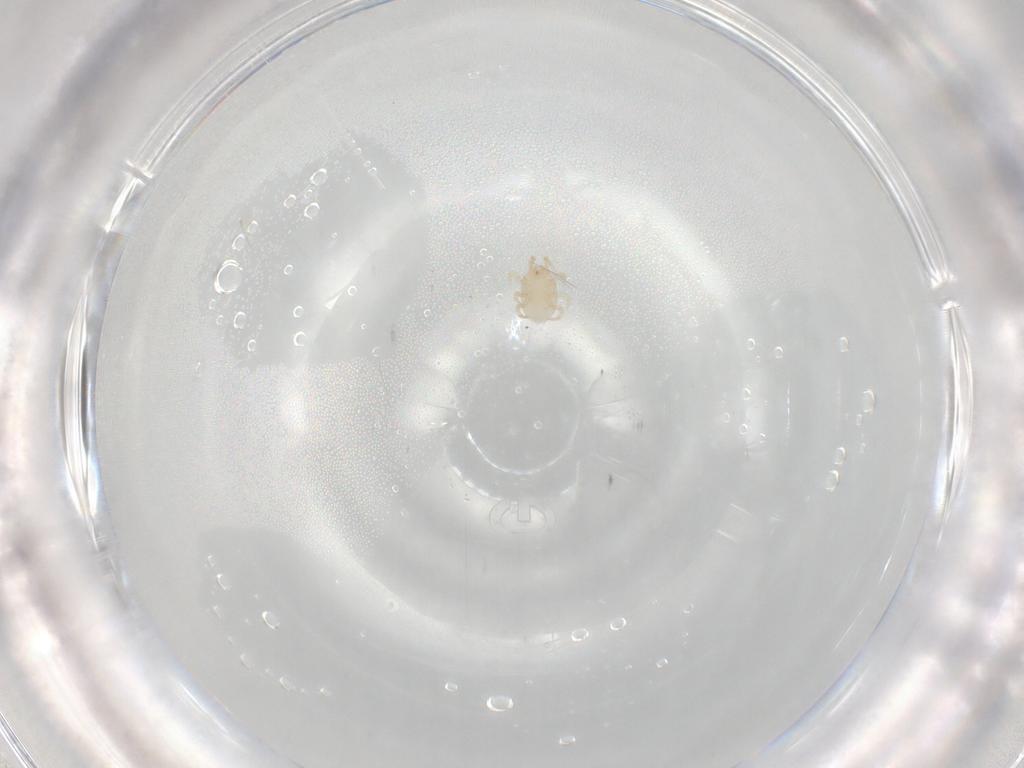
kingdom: Animalia
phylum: Arthropoda
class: Arachnida
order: Mesostigmata
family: Melicharidae
